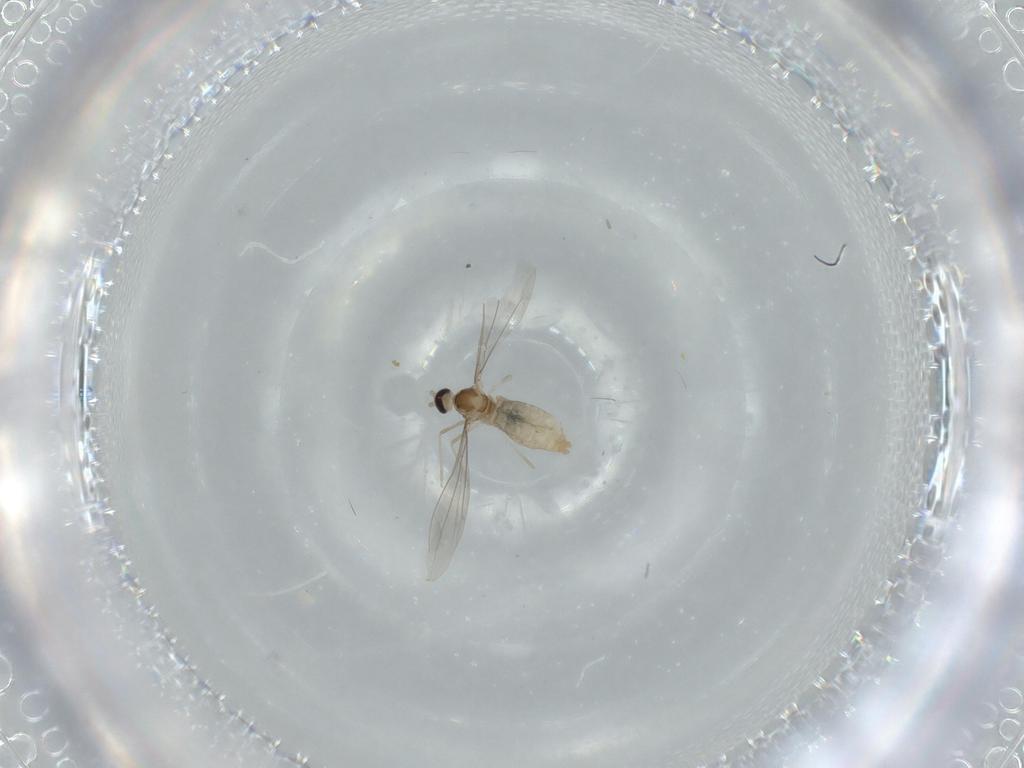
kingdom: Animalia
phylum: Arthropoda
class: Insecta
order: Diptera
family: Cecidomyiidae
